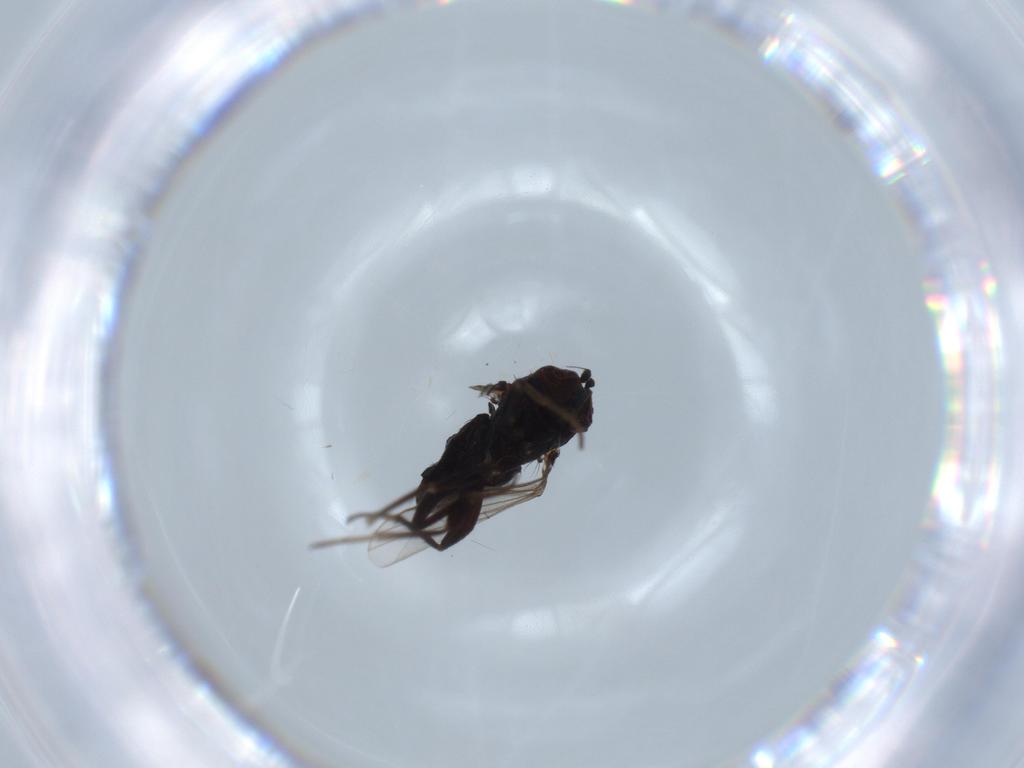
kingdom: Animalia
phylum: Arthropoda
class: Insecta
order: Diptera
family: Dolichopodidae
